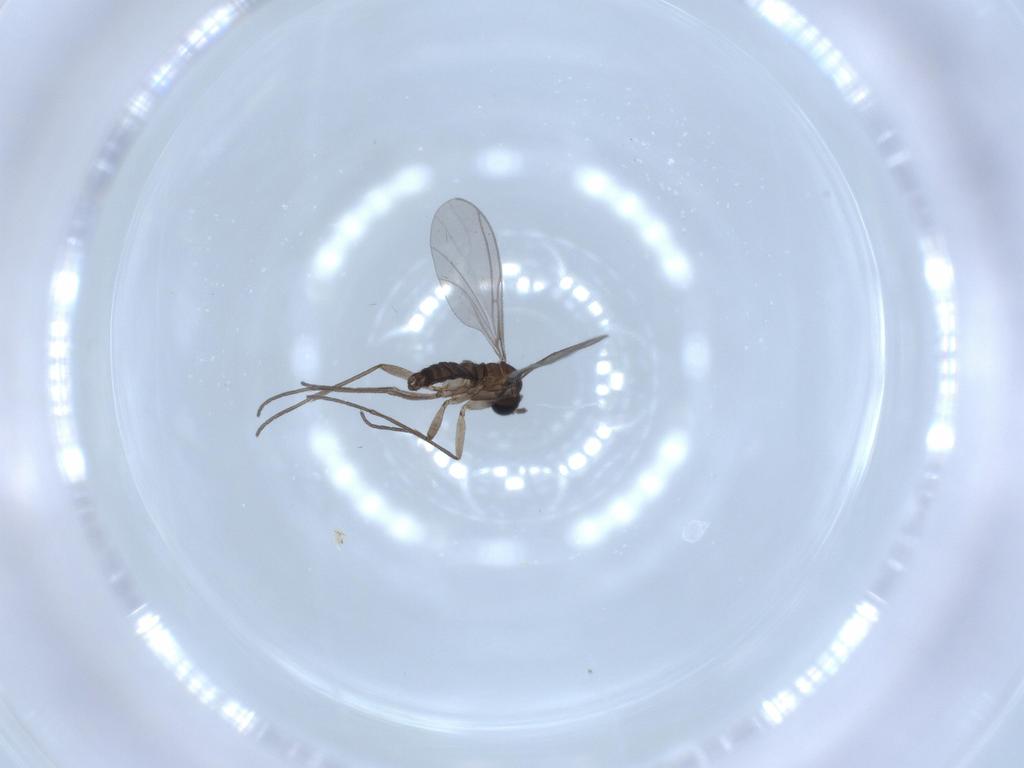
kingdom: Animalia
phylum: Arthropoda
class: Insecta
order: Diptera
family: Sciaridae
